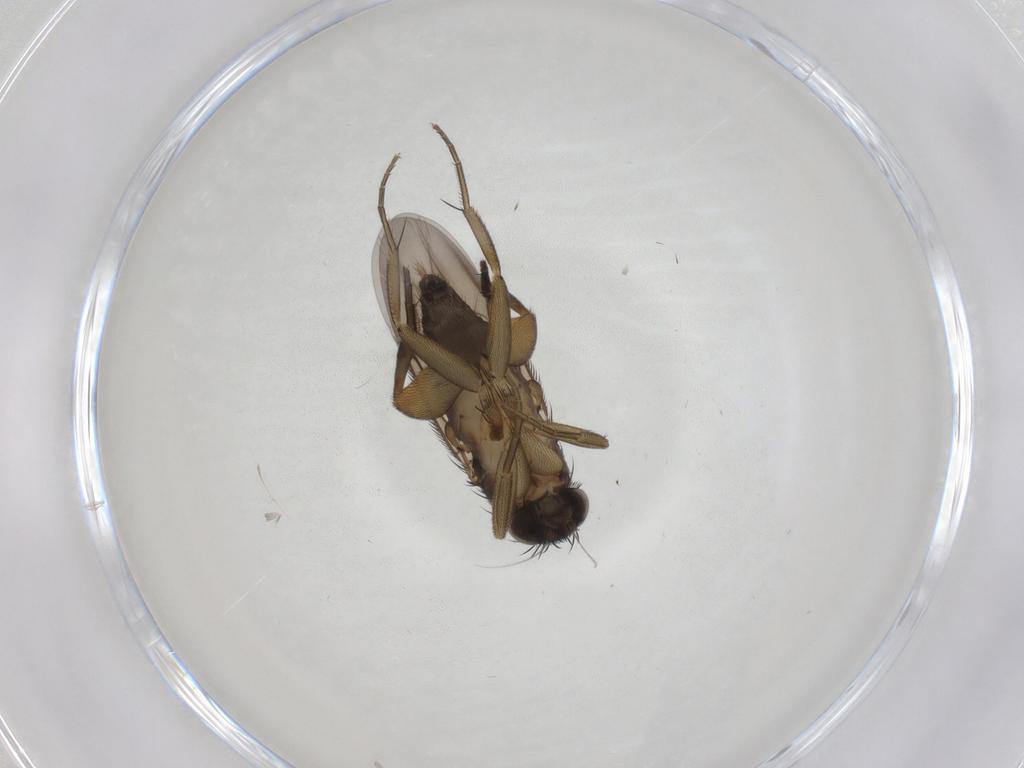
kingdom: Animalia
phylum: Arthropoda
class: Insecta
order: Diptera
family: Phoridae
